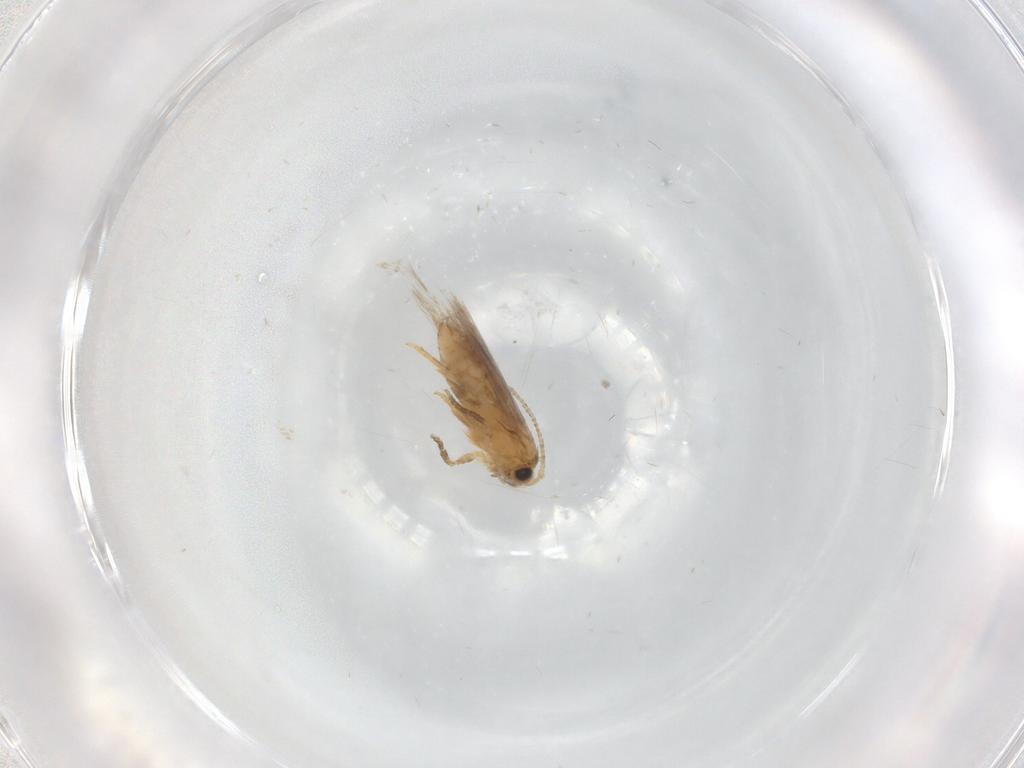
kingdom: Animalia
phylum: Arthropoda
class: Insecta
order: Lepidoptera
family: Nepticulidae
